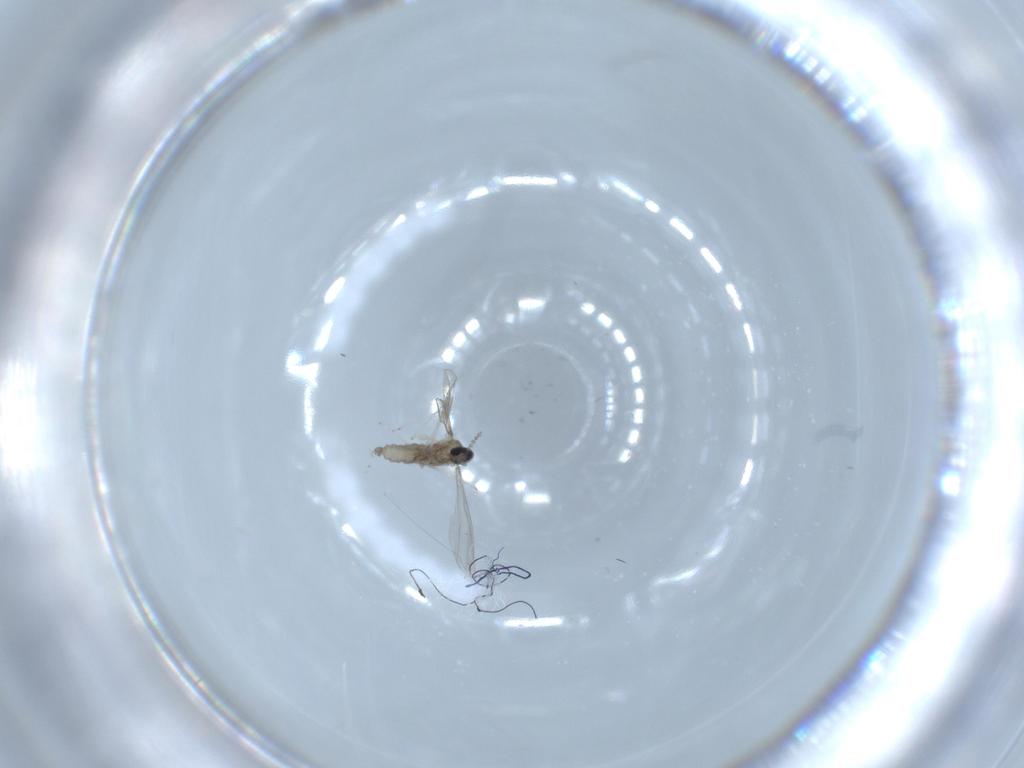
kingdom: Animalia
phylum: Arthropoda
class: Insecta
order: Diptera
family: Cecidomyiidae
